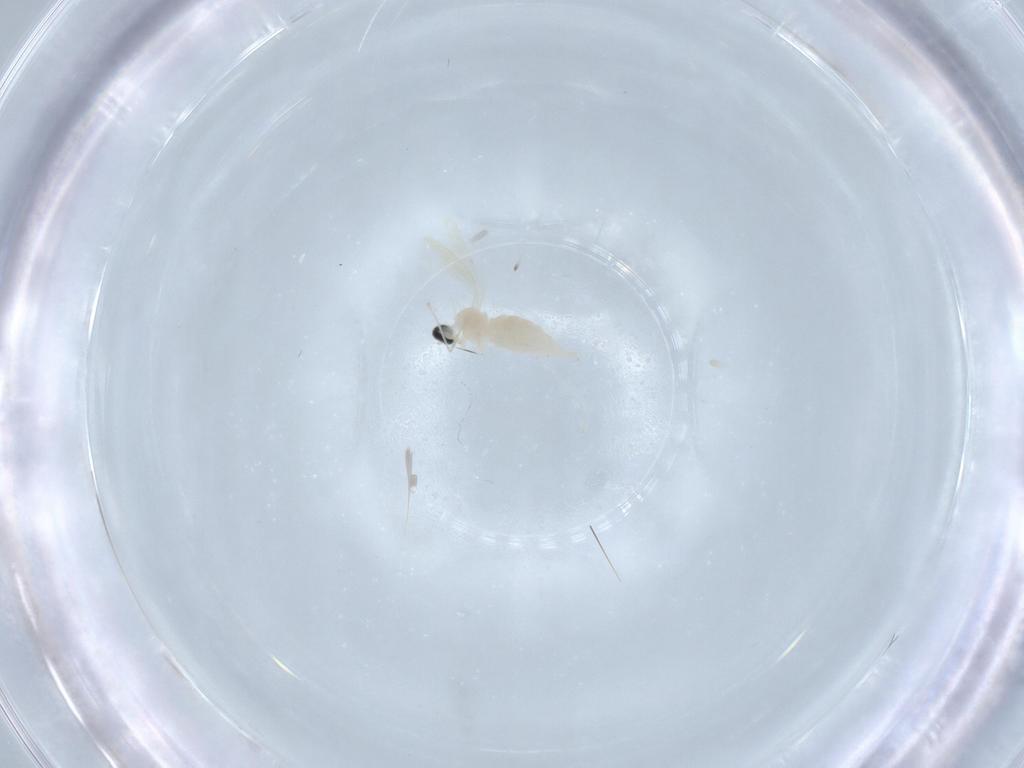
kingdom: Animalia
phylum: Arthropoda
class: Insecta
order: Diptera
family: Cecidomyiidae
